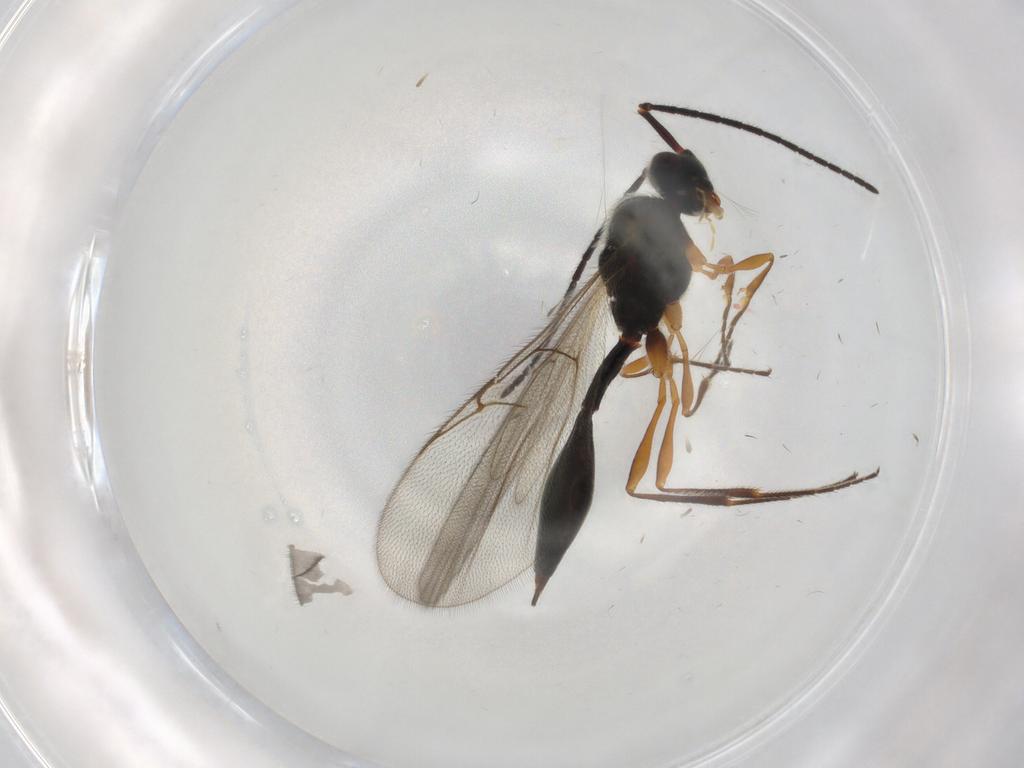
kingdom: Animalia
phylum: Arthropoda
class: Insecta
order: Hymenoptera
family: Diapriidae
